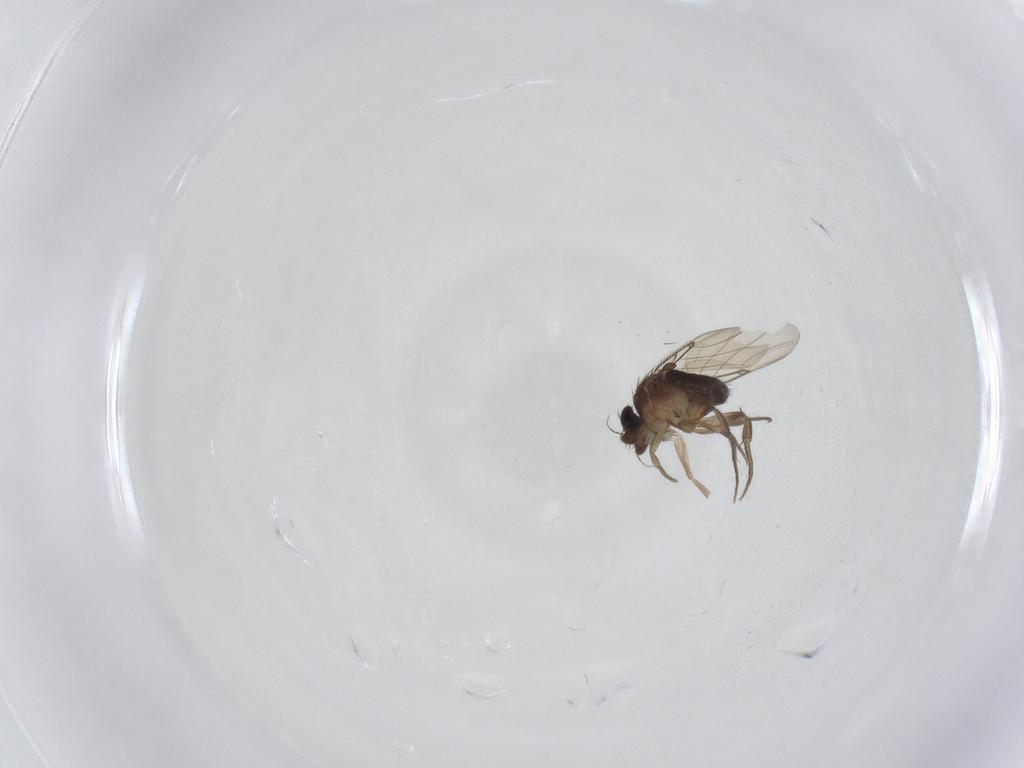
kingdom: Animalia
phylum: Arthropoda
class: Insecta
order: Diptera
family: Phoridae
